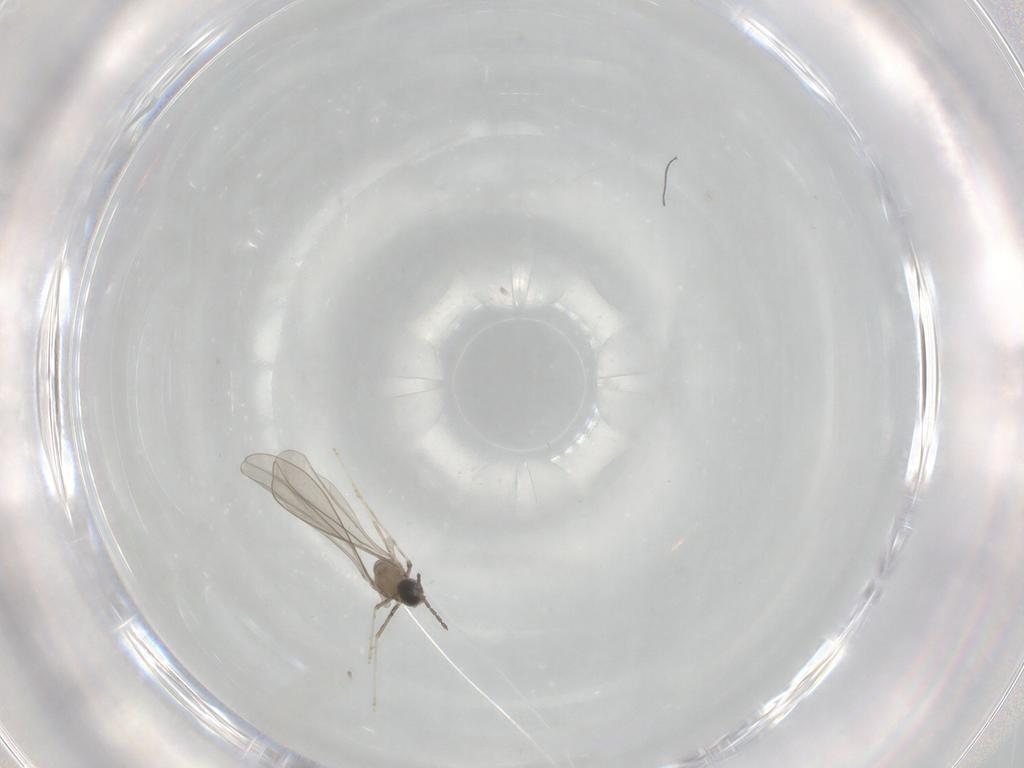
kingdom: Animalia
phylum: Arthropoda
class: Insecta
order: Diptera
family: Cecidomyiidae
